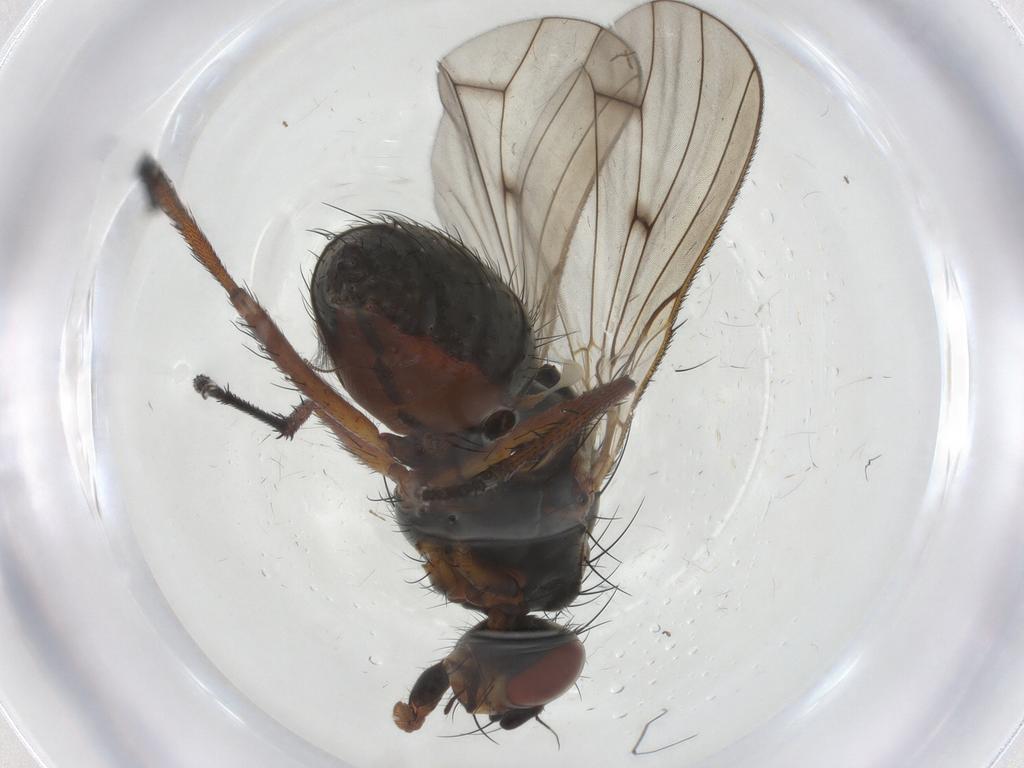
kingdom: Animalia
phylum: Arthropoda
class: Insecta
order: Diptera
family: Anthomyiidae
